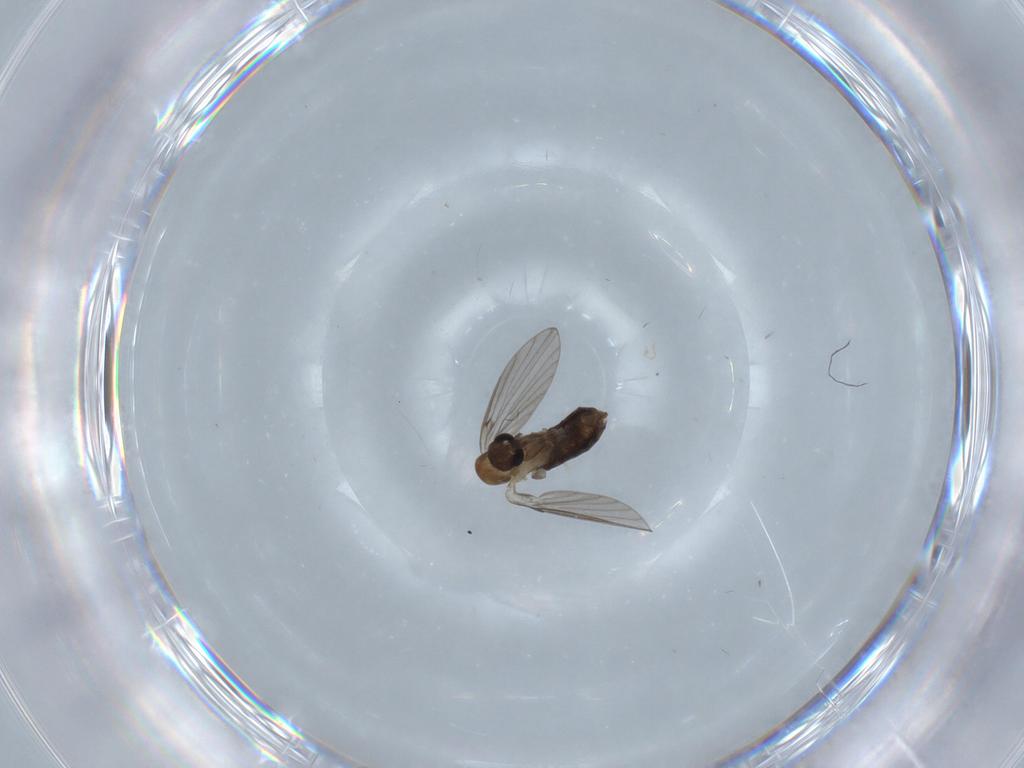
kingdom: Animalia
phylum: Arthropoda
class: Insecta
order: Diptera
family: Psychodidae
